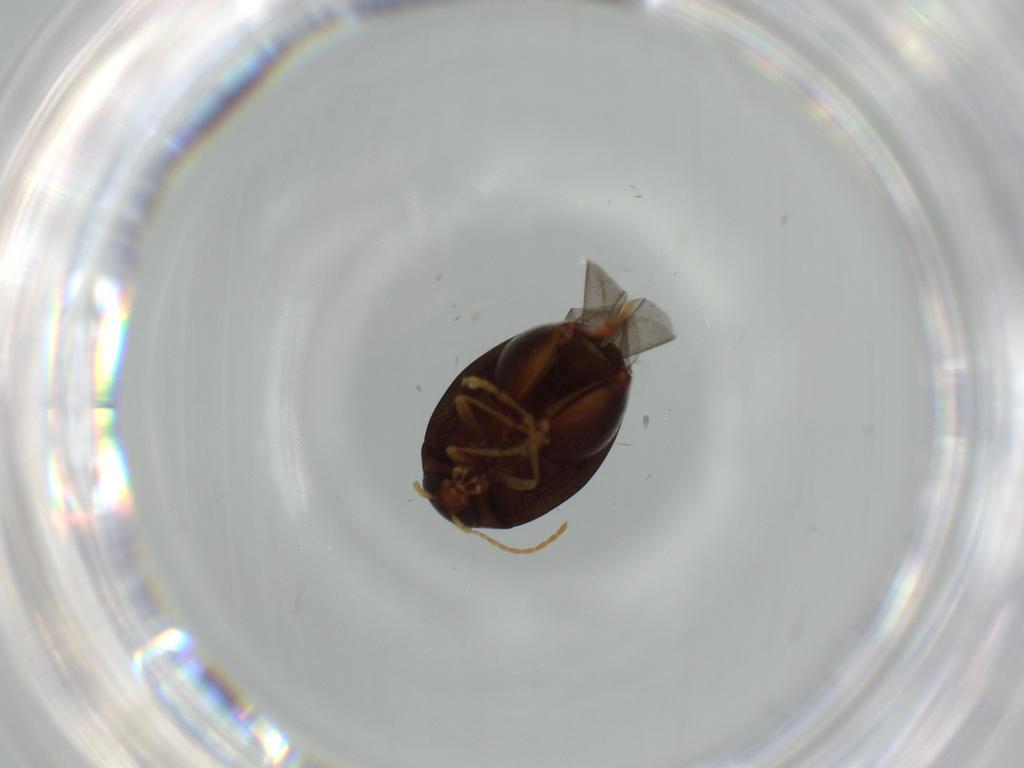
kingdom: Animalia
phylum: Arthropoda
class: Insecta
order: Coleoptera
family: Chrysomelidae
